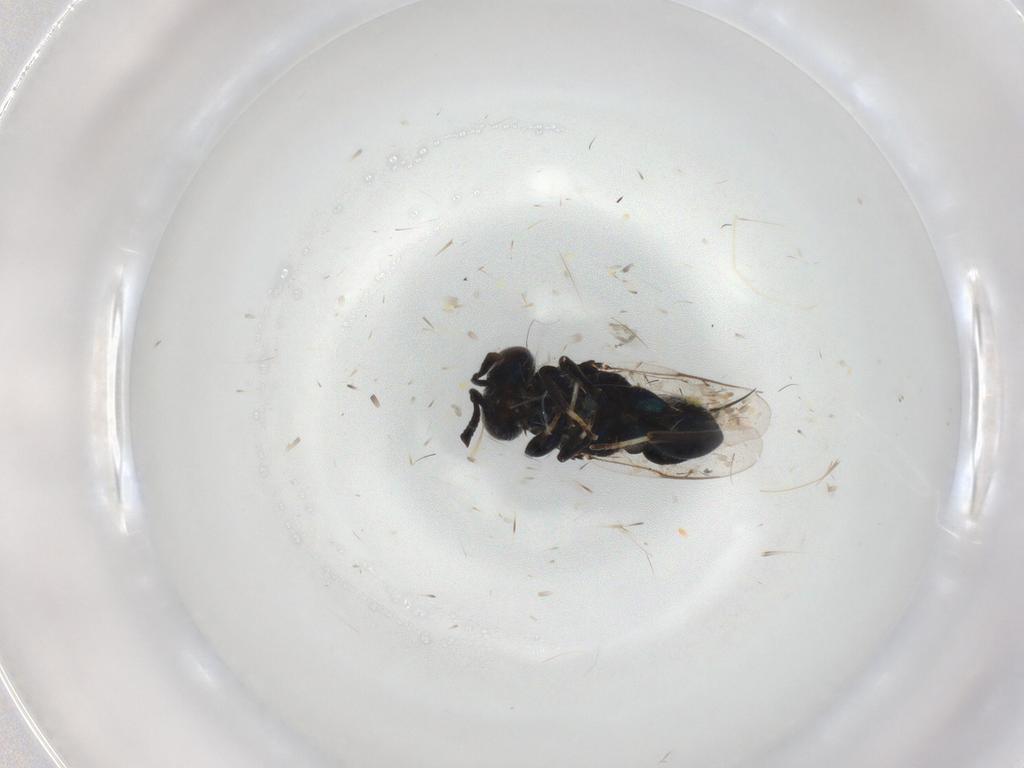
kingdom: Animalia
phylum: Arthropoda
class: Insecta
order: Hymenoptera
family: Pteromalidae
